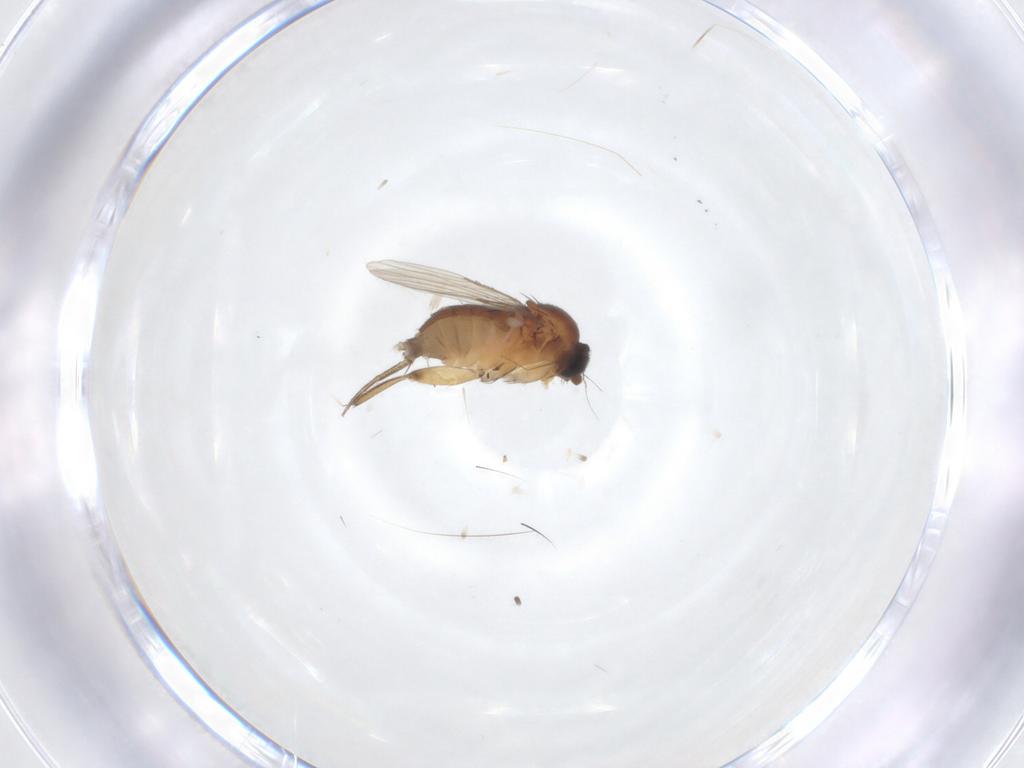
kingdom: Animalia
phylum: Arthropoda
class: Insecta
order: Diptera
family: Phoridae
